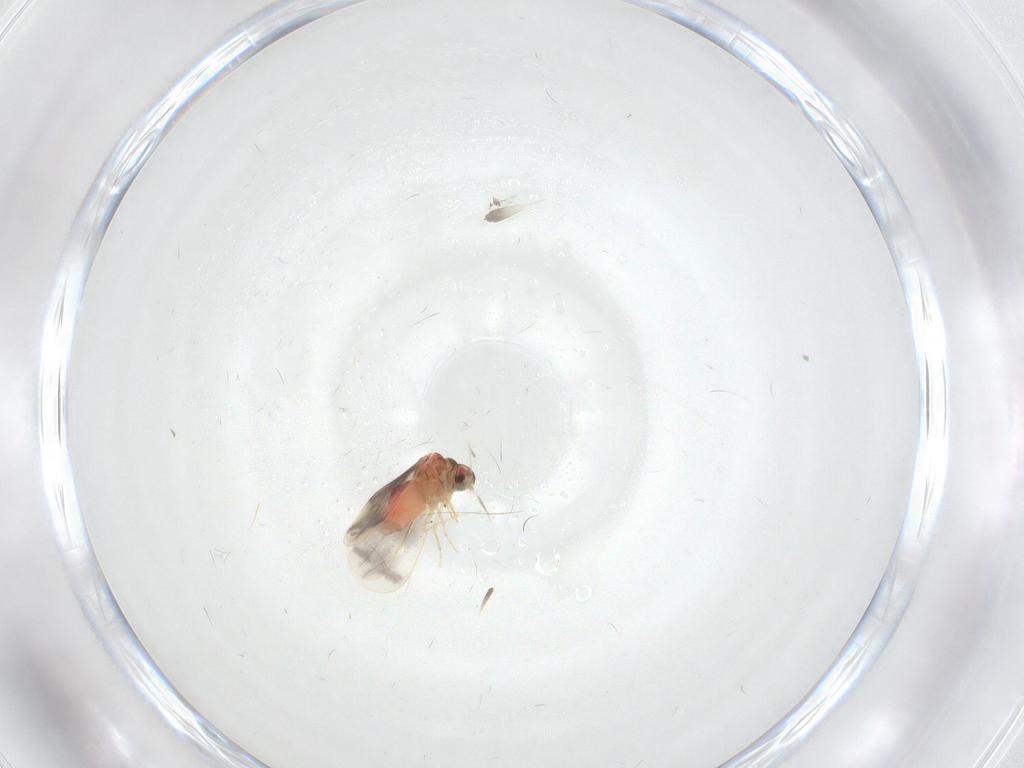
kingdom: Animalia
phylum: Arthropoda
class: Insecta
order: Hemiptera
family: Aleyrodidae
